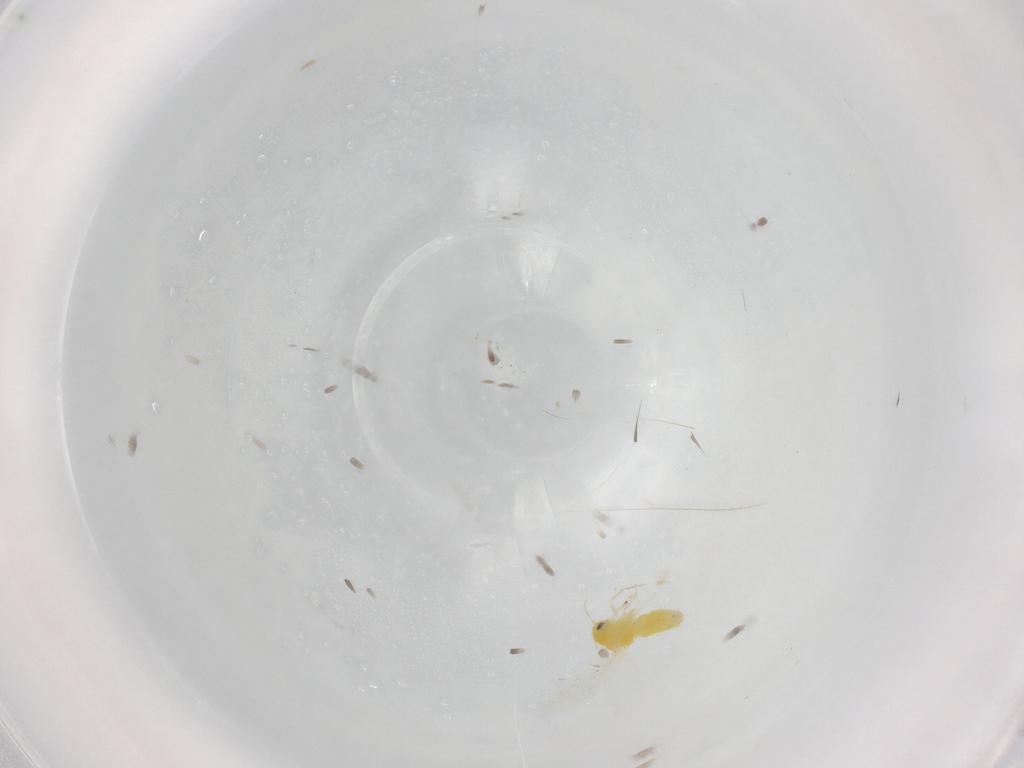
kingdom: Animalia
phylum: Arthropoda
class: Insecta
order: Hemiptera
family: Aleyrodidae
